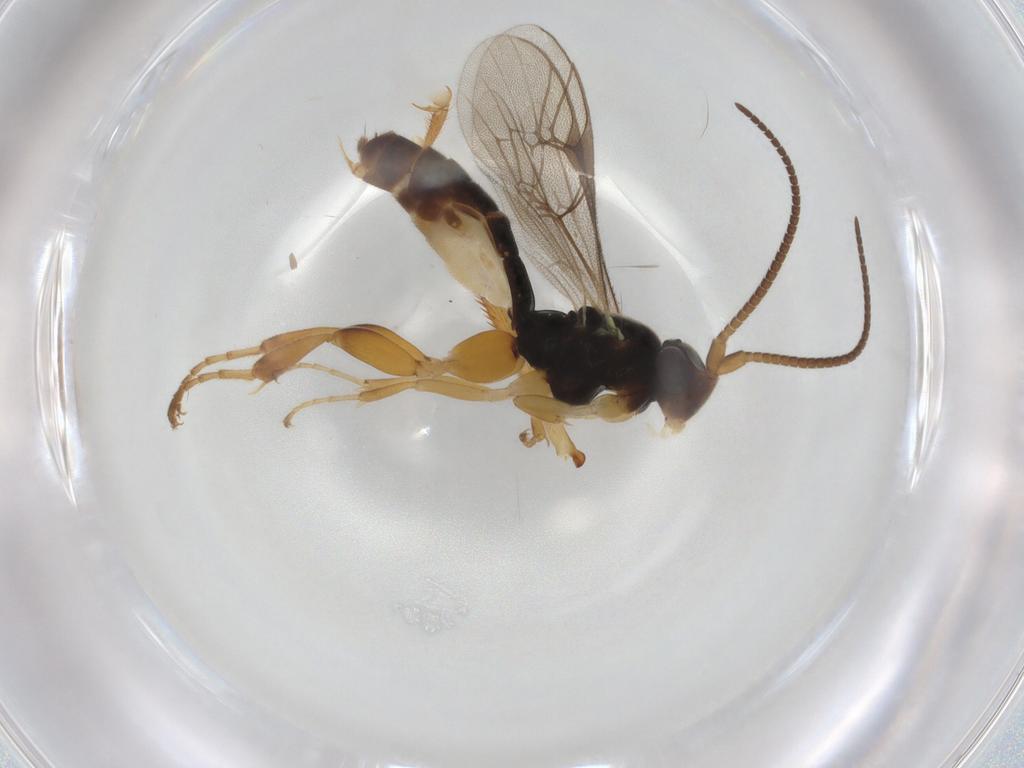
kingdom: Animalia
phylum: Arthropoda
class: Insecta
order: Hymenoptera
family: Ichneumonidae
